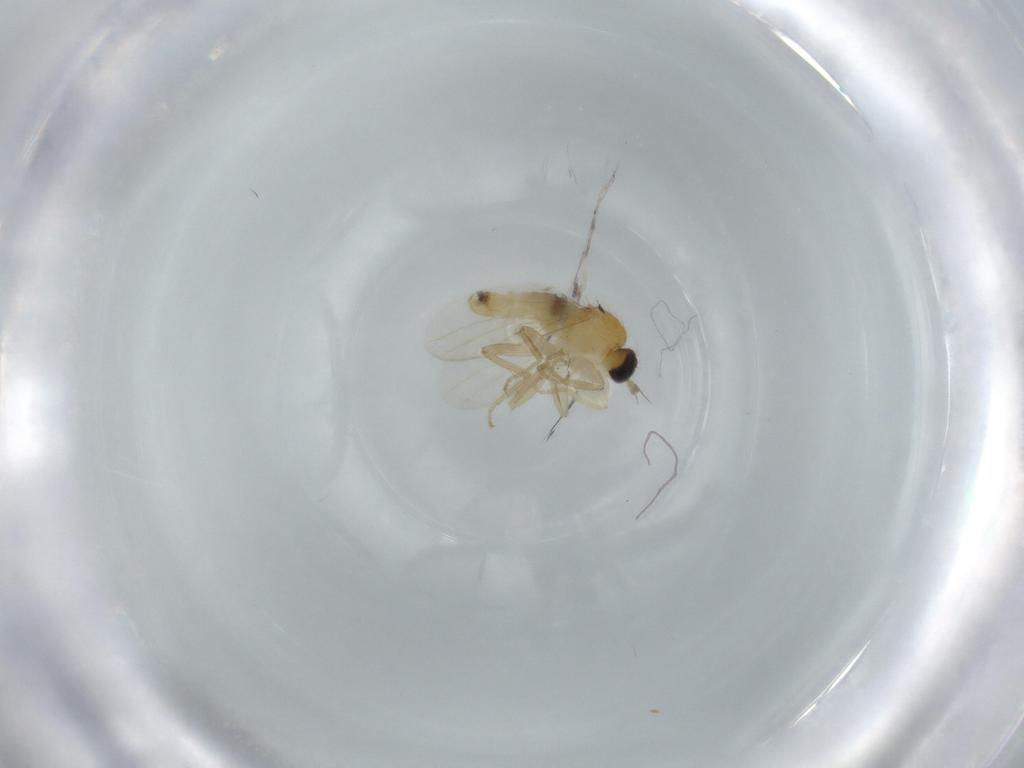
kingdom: Animalia
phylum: Arthropoda
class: Insecta
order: Diptera
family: Hybotidae
